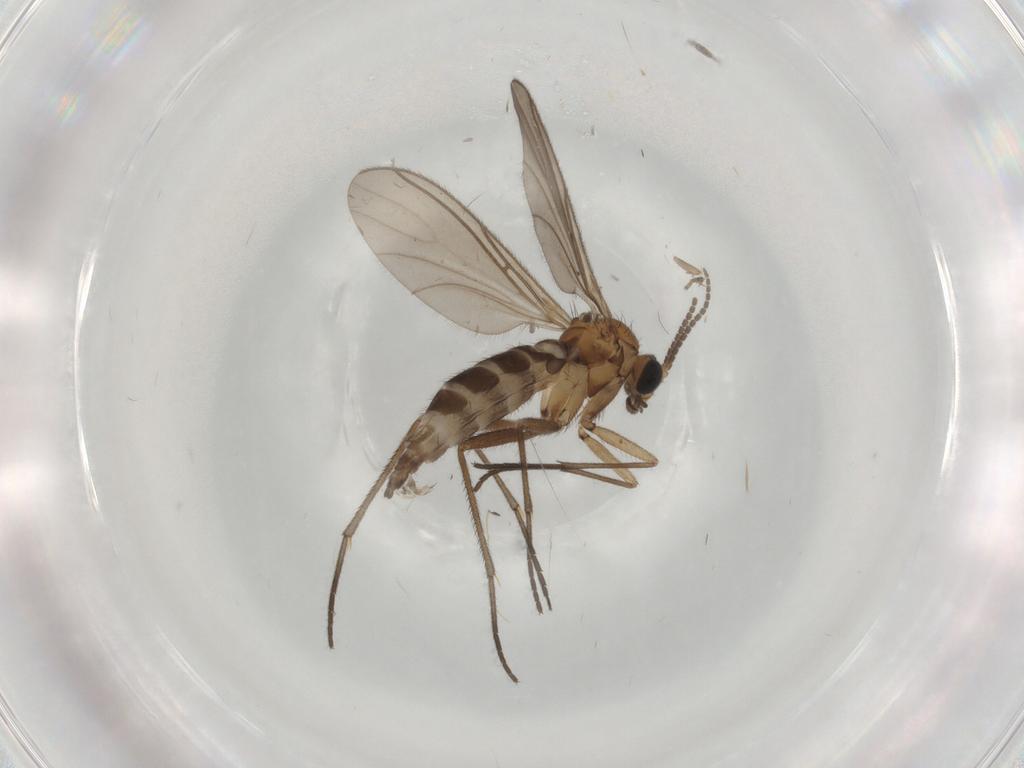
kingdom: Animalia
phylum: Arthropoda
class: Insecta
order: Diptera
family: Sciaridae
